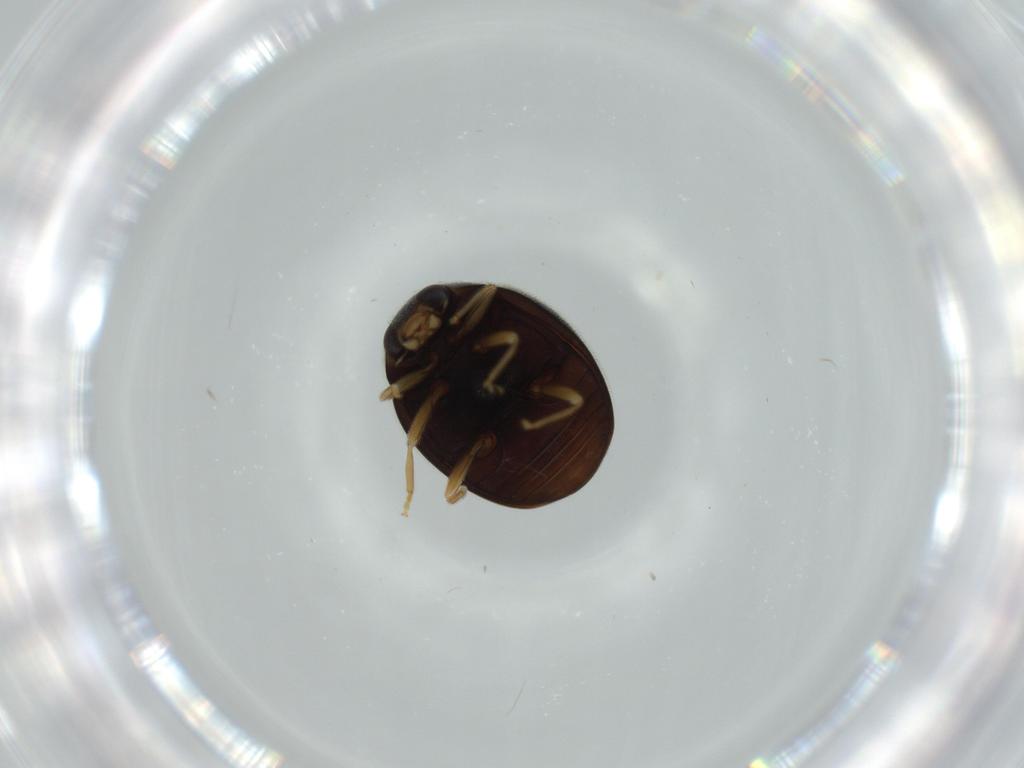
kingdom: Animalia
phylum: Arthropoda
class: Insecta
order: Coleoptera
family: Coccinellidae
